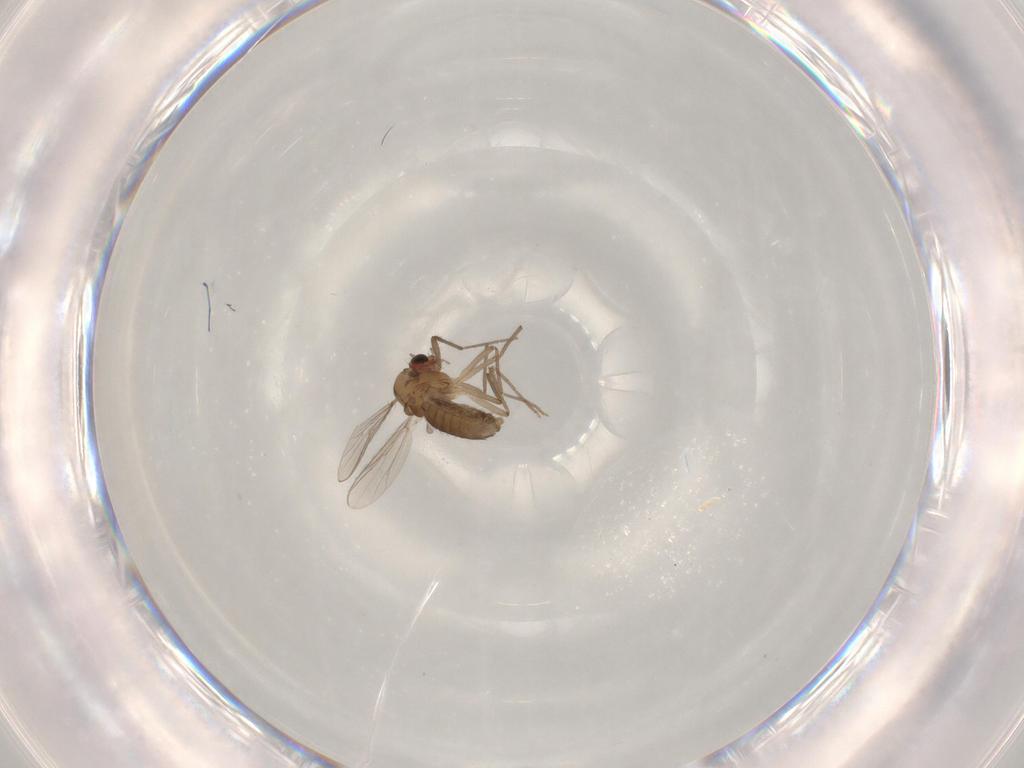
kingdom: Animalia
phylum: Arthropoda
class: Insecta
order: Diptera
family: Chironomidae
